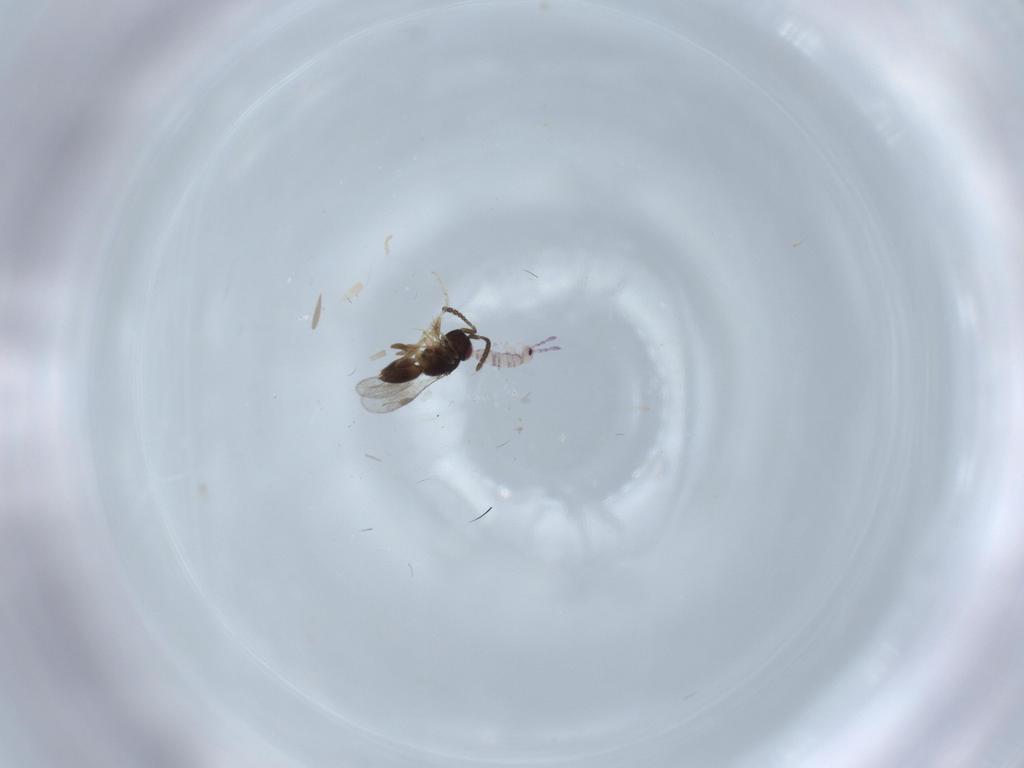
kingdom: Animalia
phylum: Arthropoda
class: Collembola
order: Entomobryomorpha
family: Entomobryidae
